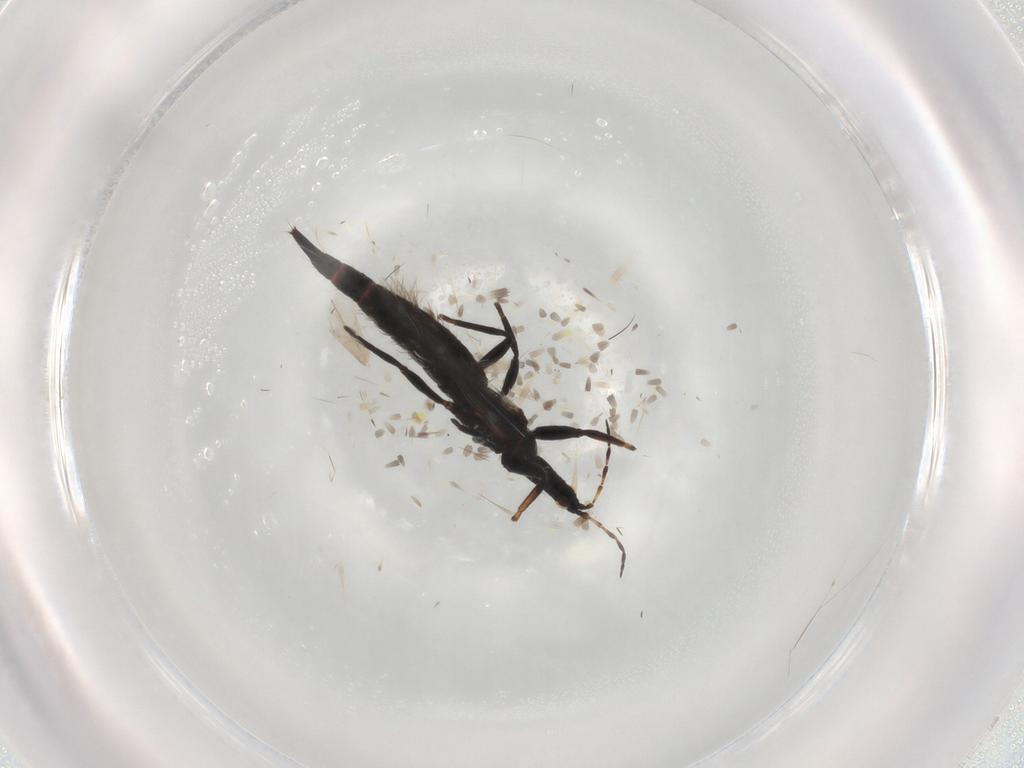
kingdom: Animalia
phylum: Arthropoda
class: Insecta
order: Thysanoptera
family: Phlaeothripidae
